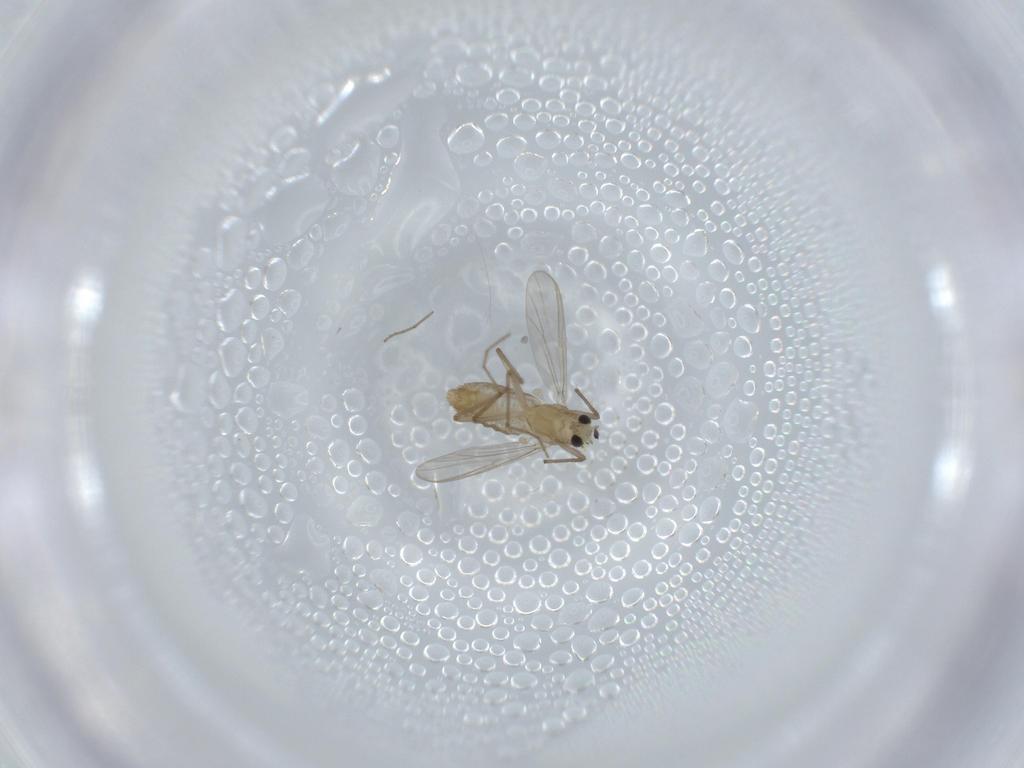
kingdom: Animalia
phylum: Arthropoda
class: Insecta
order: Diptera
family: Chironomidae
